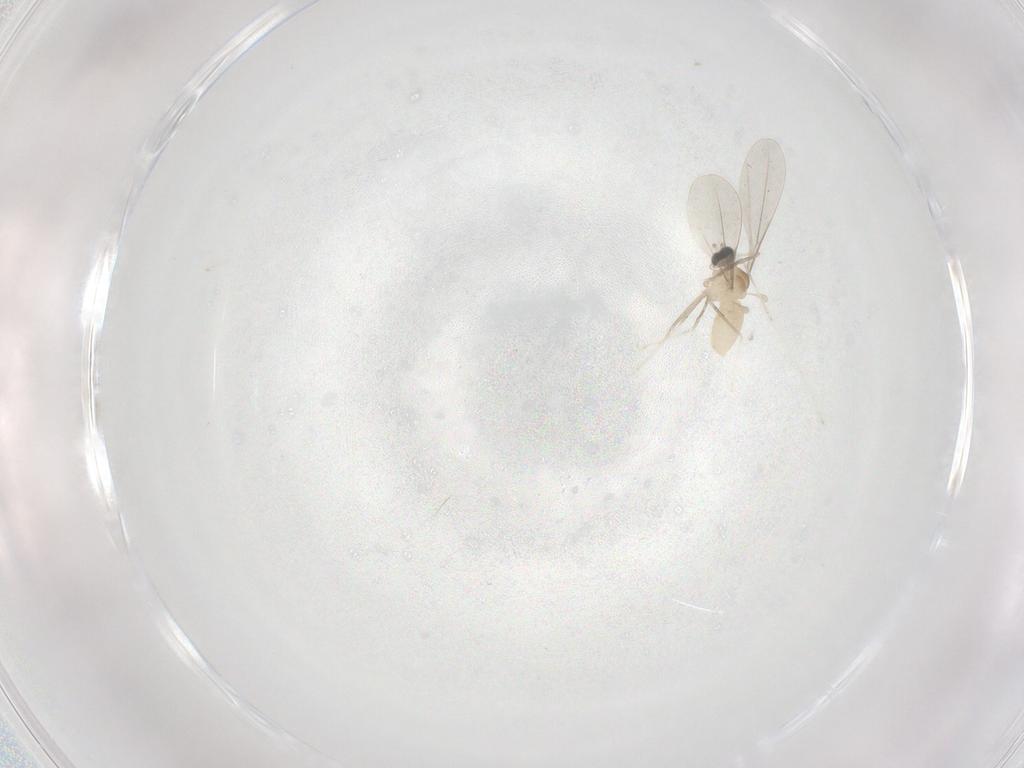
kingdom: Animalia
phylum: Arthropoda
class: Insecta
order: Diptera
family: Cecidomyiidae
